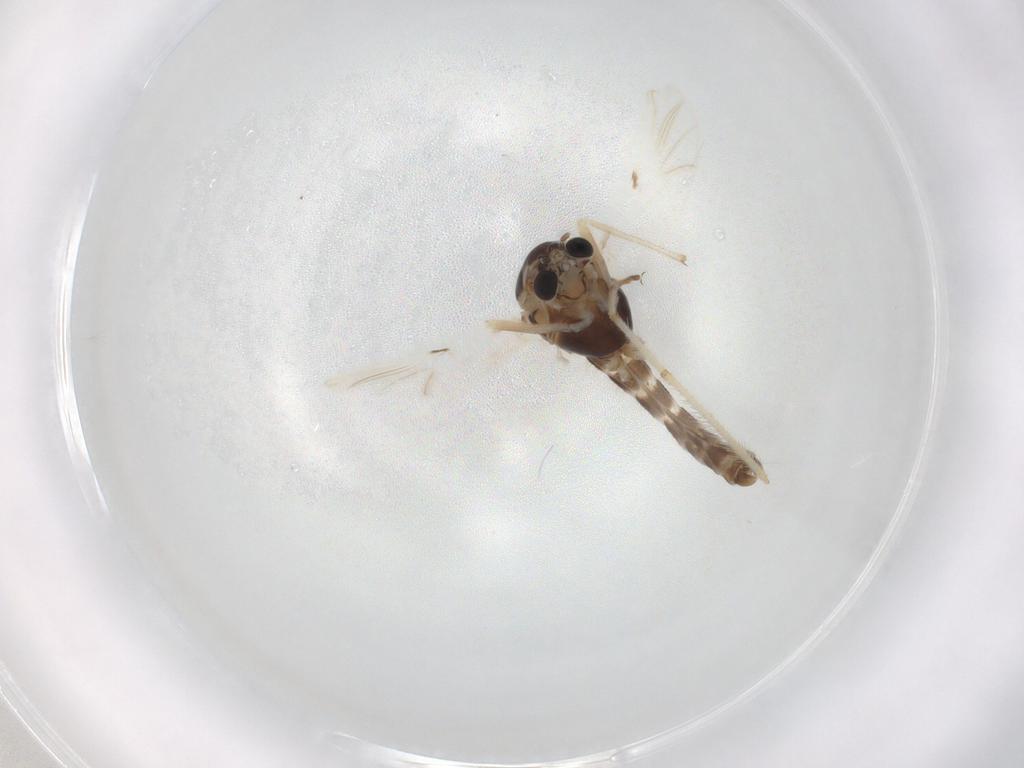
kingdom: Animalia
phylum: Arthropoda
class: Insecta
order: Diptera
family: Chironomidae
